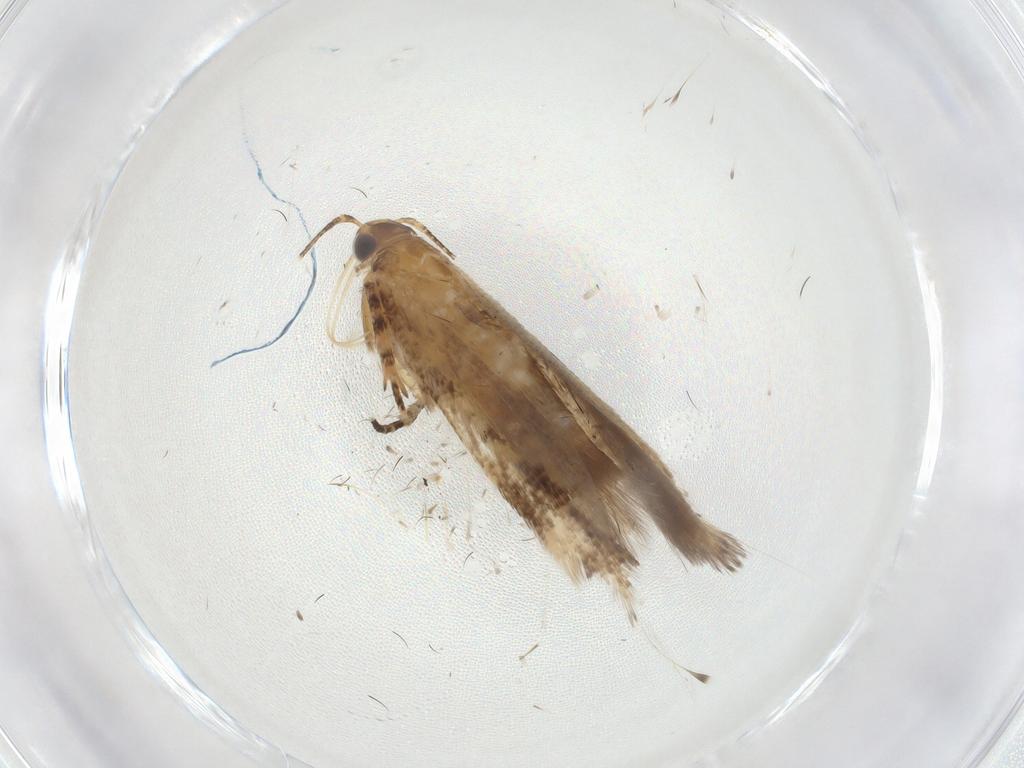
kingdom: Animalia
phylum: Arthropoda
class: Insecta
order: Lepidoptera
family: Gelechiidae
